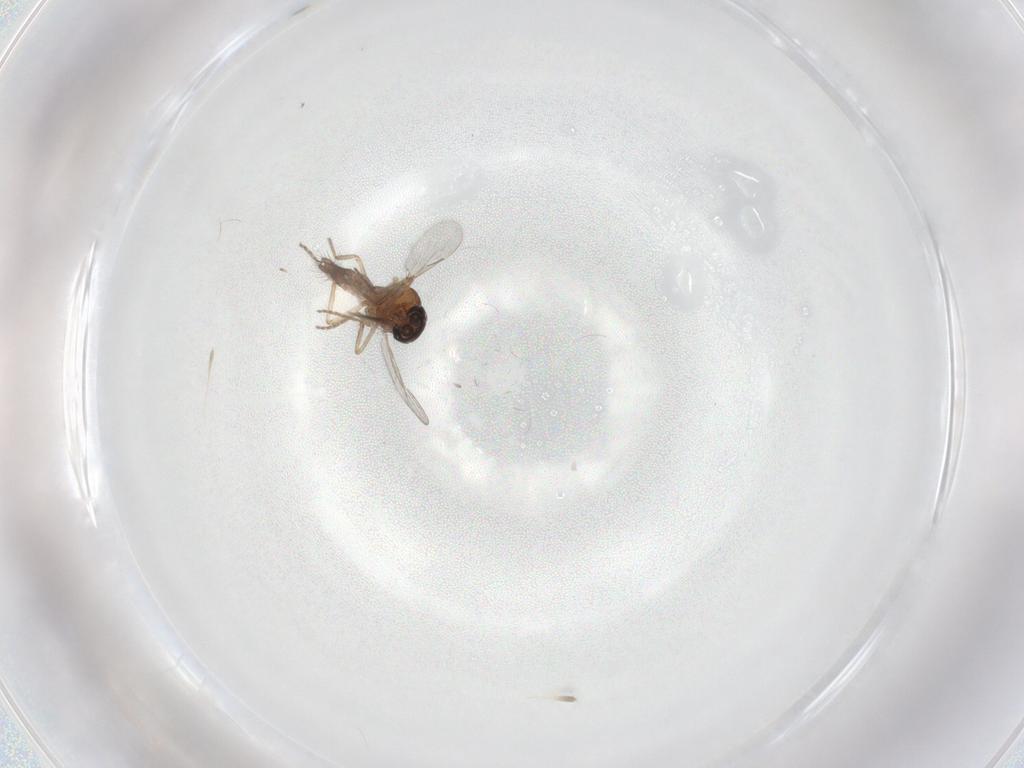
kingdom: Animalia
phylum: Arthropoda
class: Insecta
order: Diptera
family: Ceratopogonidae
